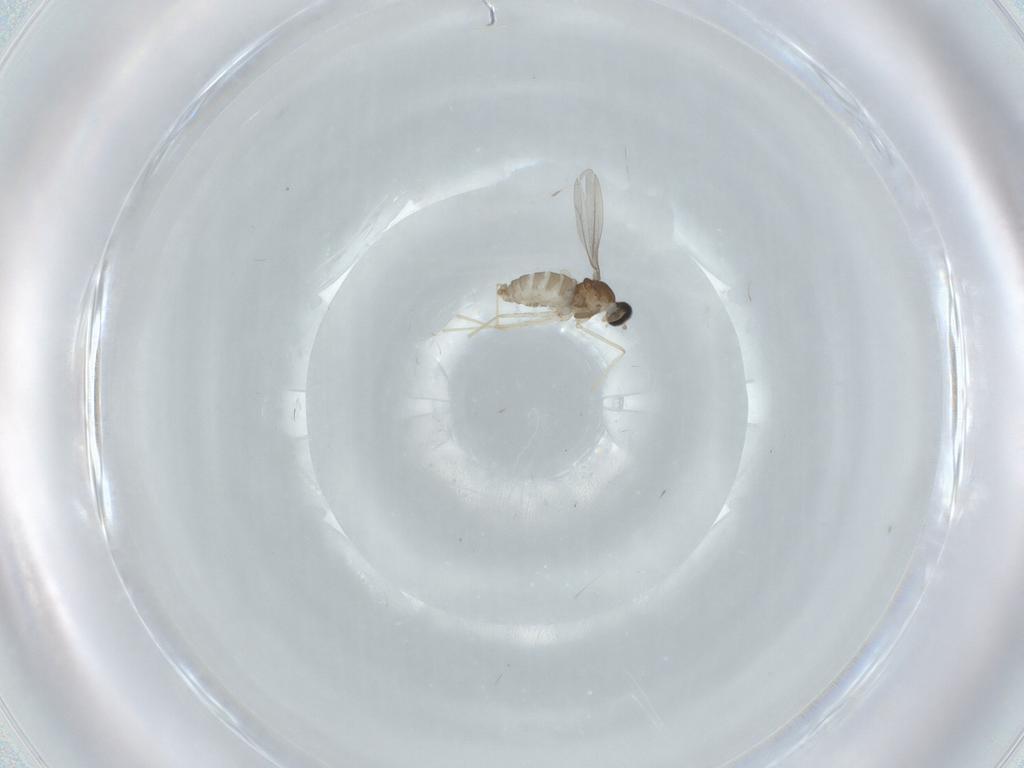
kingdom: Animalia
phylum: Arthropoda
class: Insecta
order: Diptera
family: Cecidomyiidae
